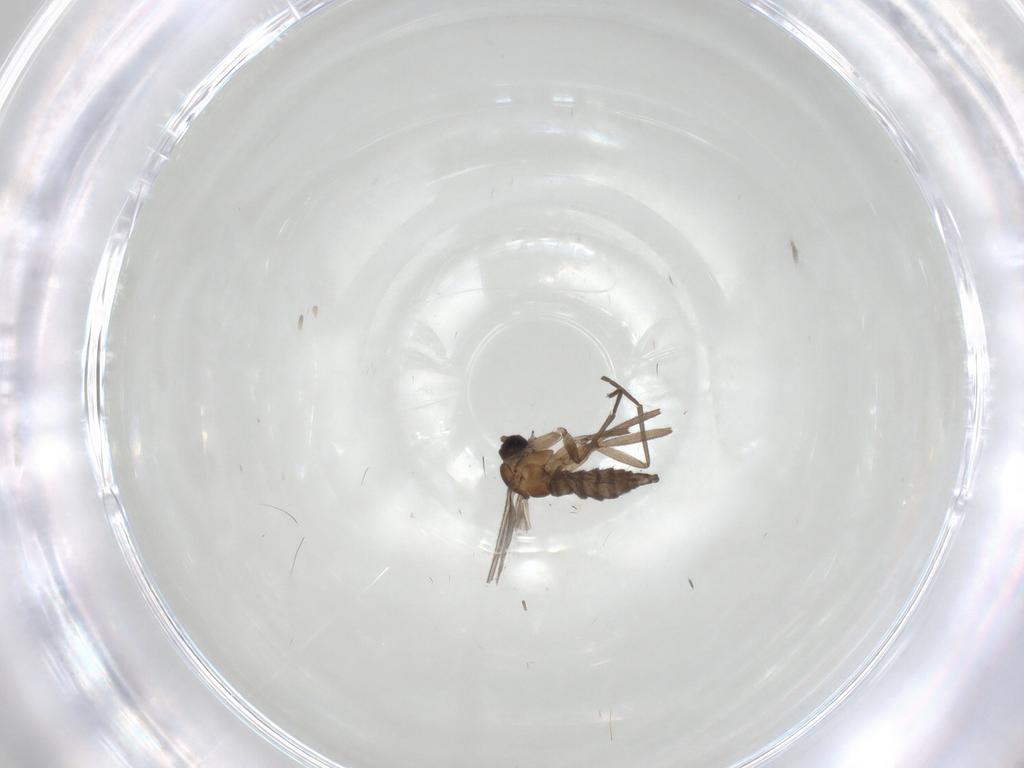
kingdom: Animalia
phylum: Arthropoda
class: Insecta
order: Diptera
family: Sciaridae
